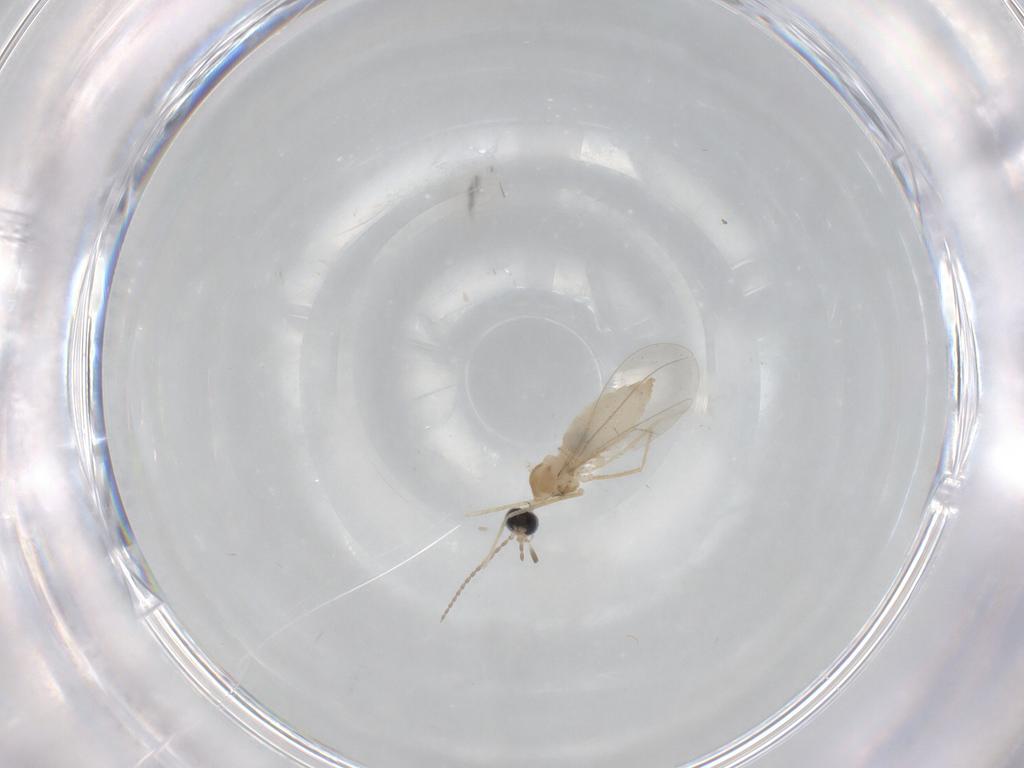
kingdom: Animalia
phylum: Arthropoda
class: Insecta
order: Diptera
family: Cecidomyiidae
